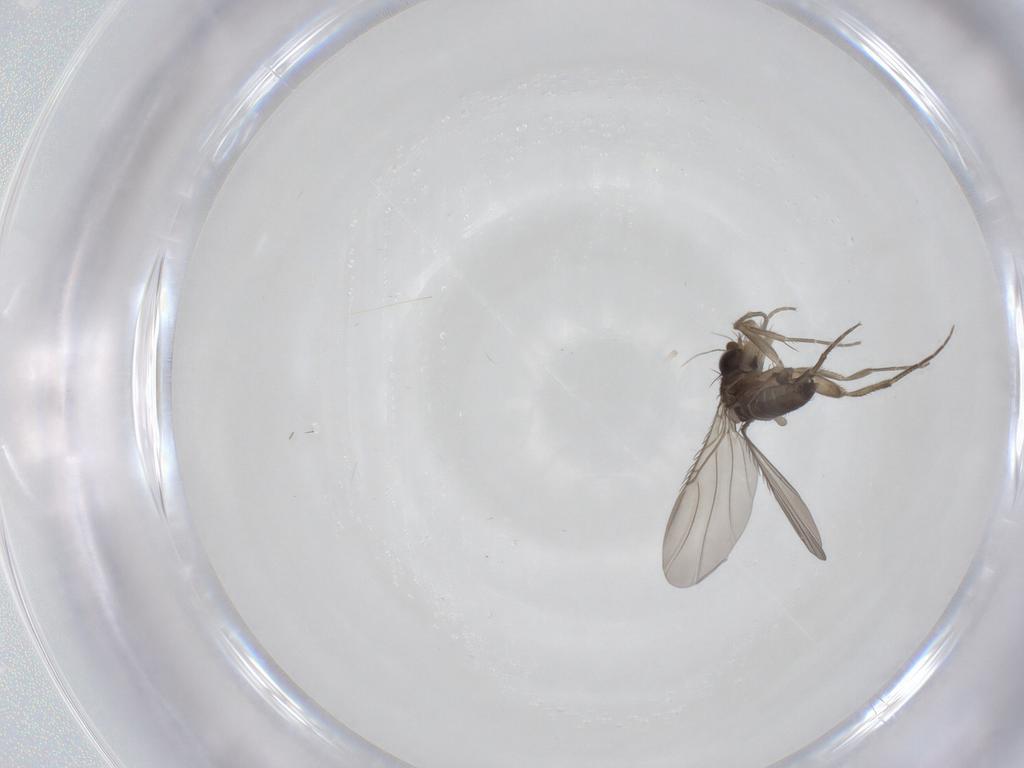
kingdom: Animalia
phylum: Arthropoda
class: Insecta
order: Diptera
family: Phoridae
